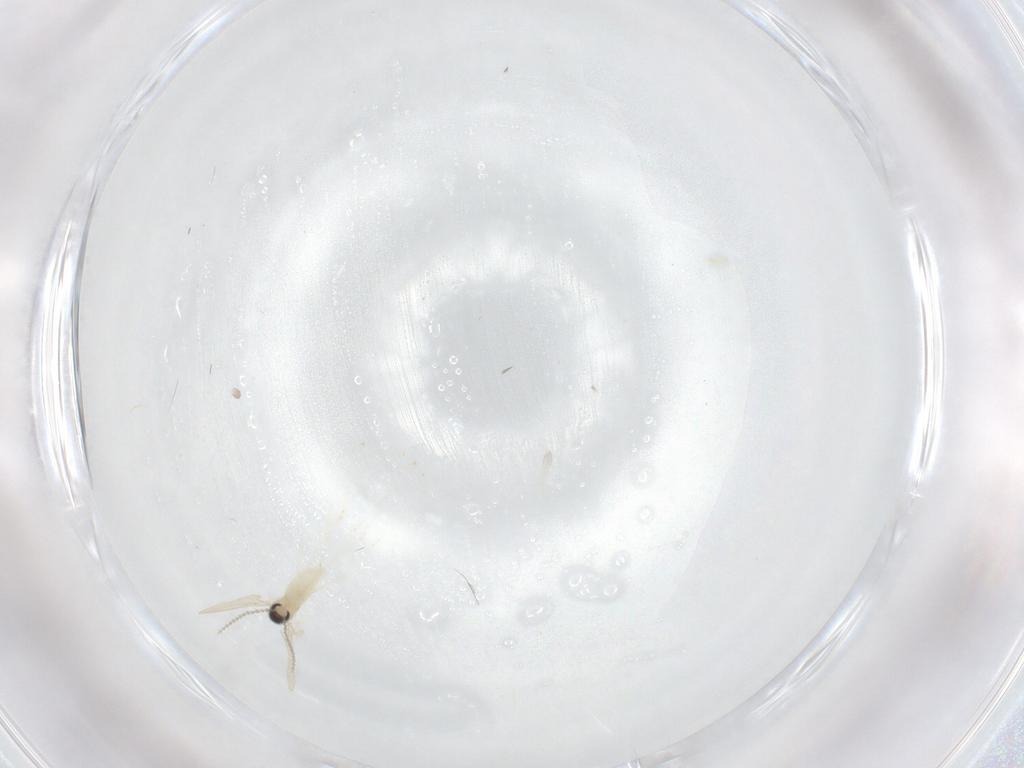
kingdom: Animalia
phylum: Arthropoda
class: Insecta
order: Diptera
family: Cecidomyiidae
